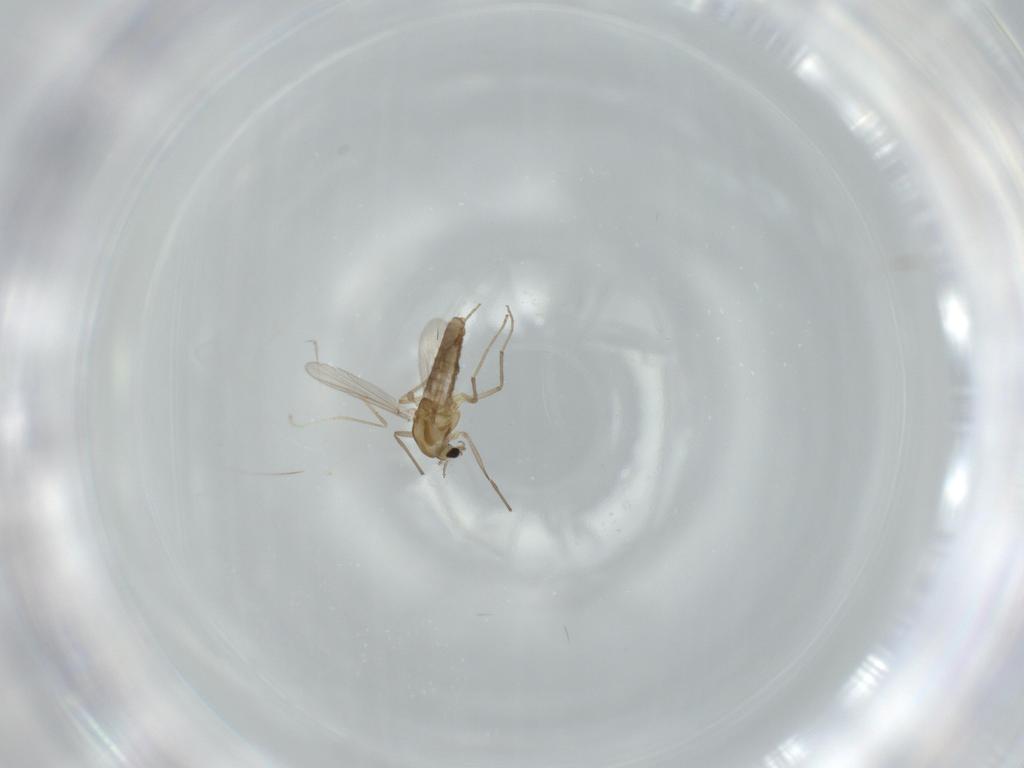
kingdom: Animalia
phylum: Arthropoda
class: Insecta
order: Diptera
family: Chironomidae
